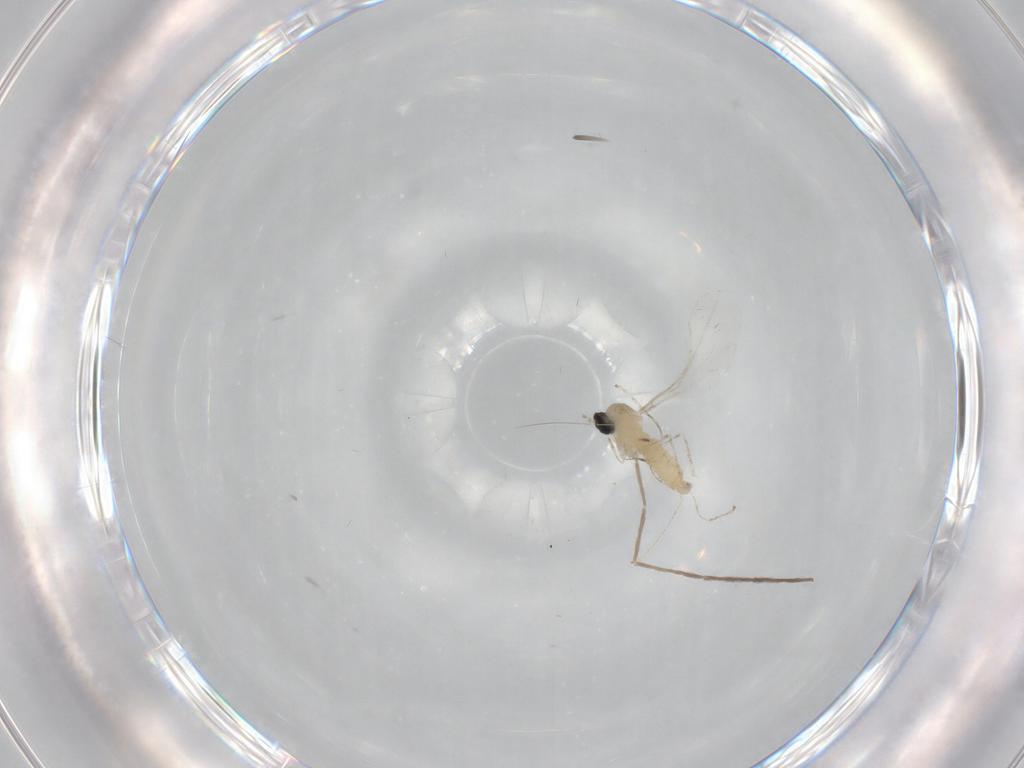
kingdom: Animalia
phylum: Arthropoda
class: Insecta
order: Diptera
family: Cecidomyiidae
